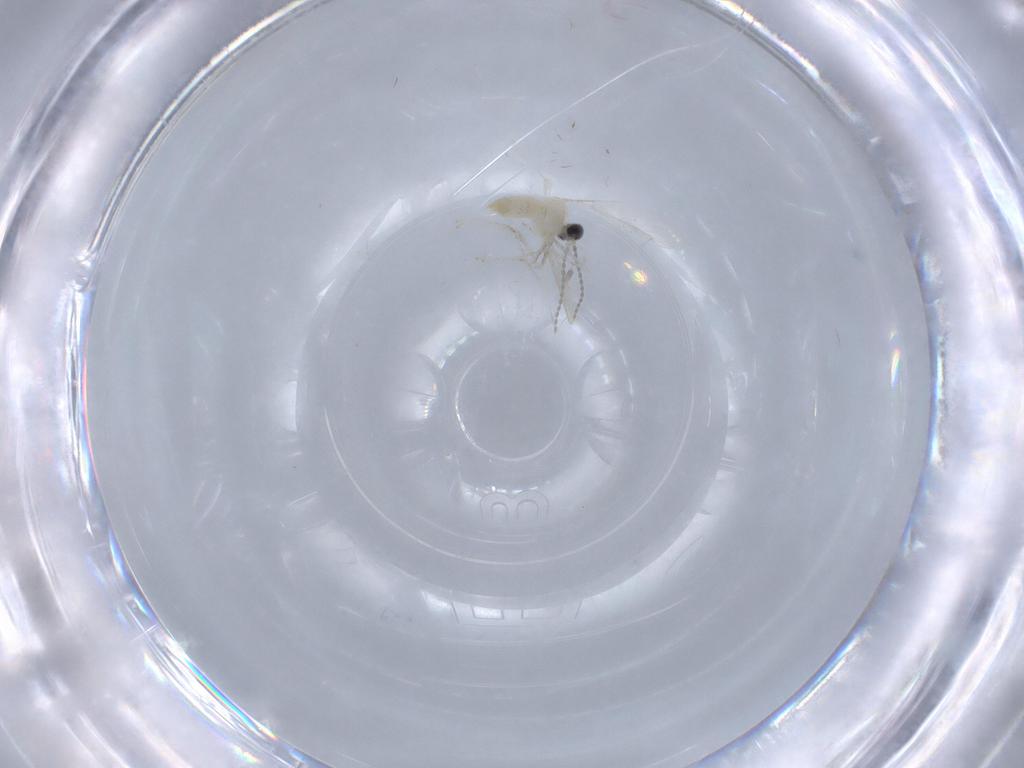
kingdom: Animalia
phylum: Arthropoda
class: Insecta
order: Diptera
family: Cecidomyiidae
